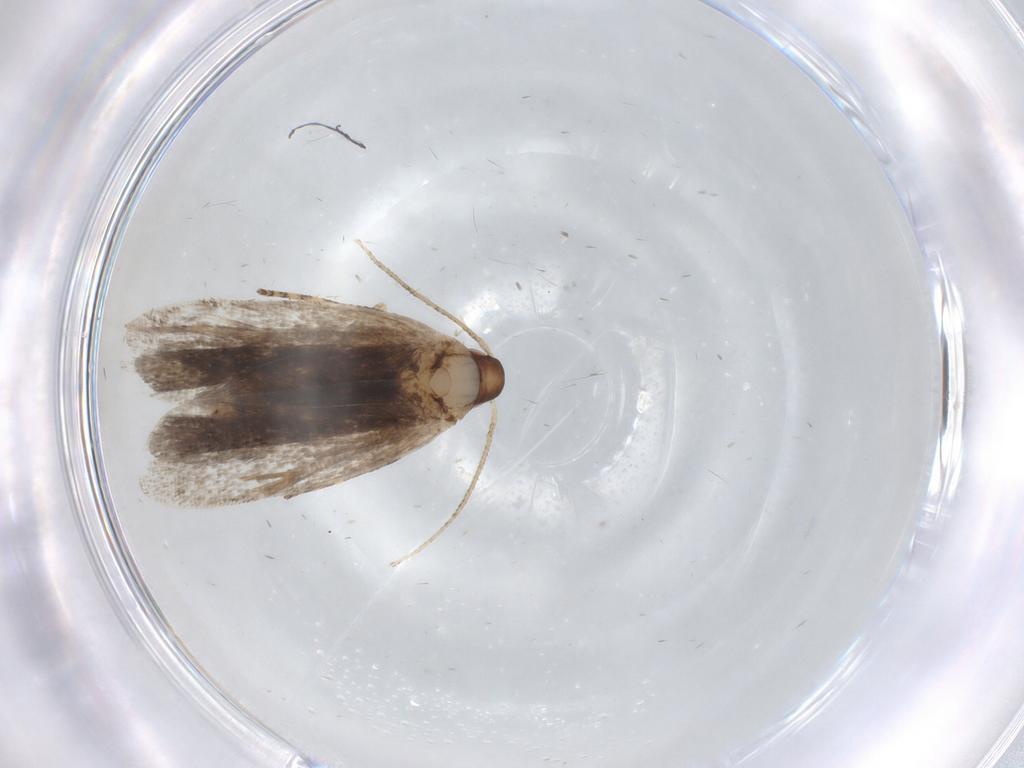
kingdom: Animalia
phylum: Arthropoda
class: Insecta
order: Lepidoptera
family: Gelechiidae
